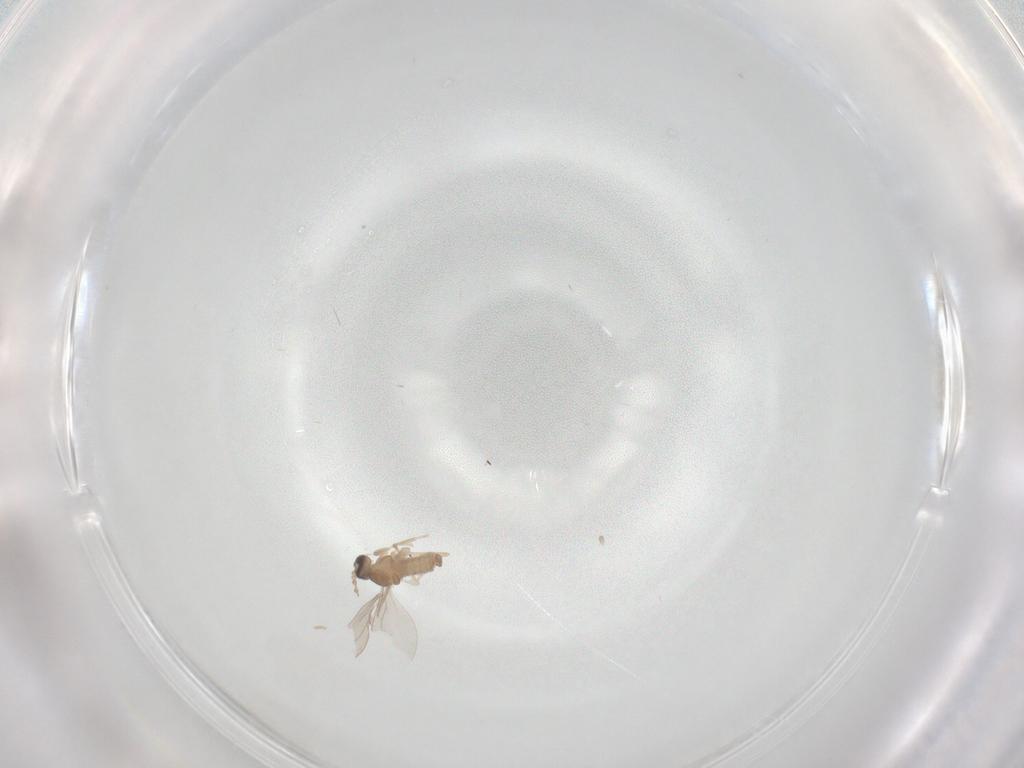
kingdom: Animalia
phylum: Arthropoda
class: Insecta
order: Diptera
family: Cecidomyiidae
